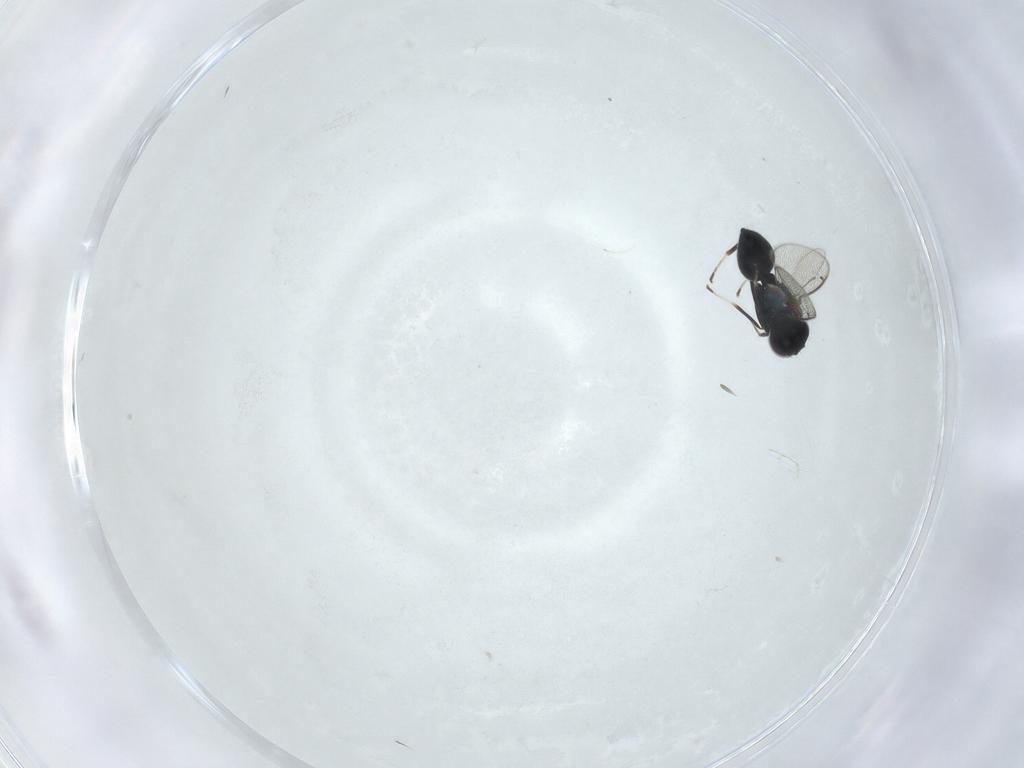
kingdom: Animalia
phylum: Arthropoda
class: Insecta
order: Hymenoptera
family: Eulophidae
